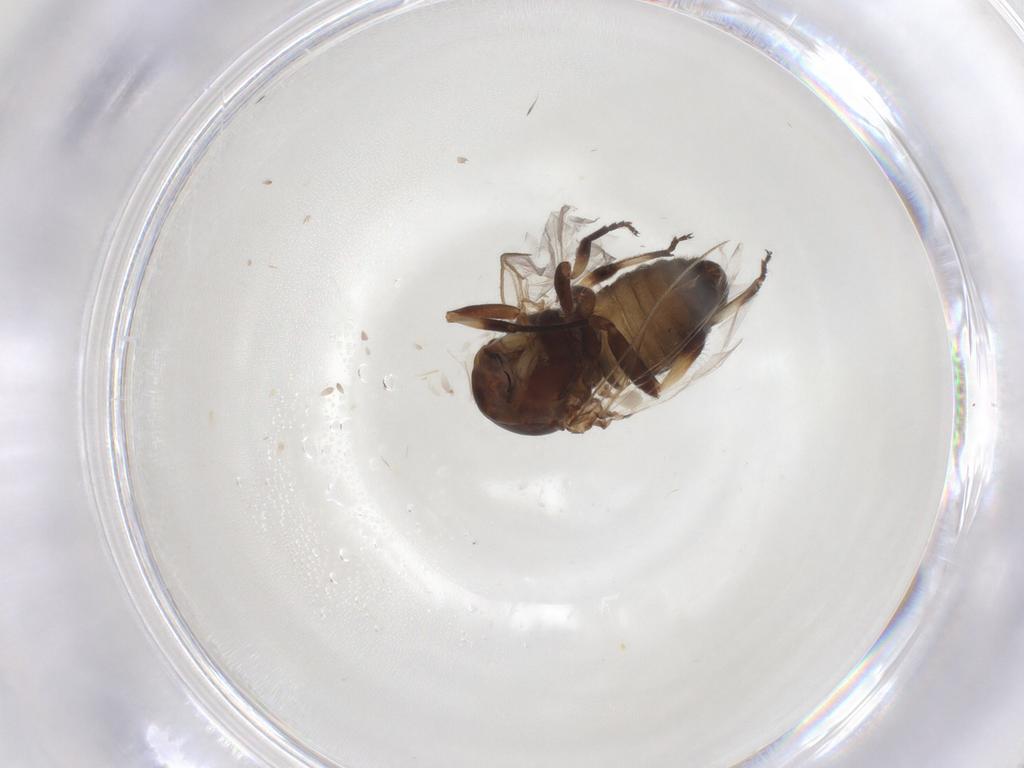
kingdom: Animalia
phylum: Arthropoda
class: Insecta
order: Diptera
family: Simuliidae
